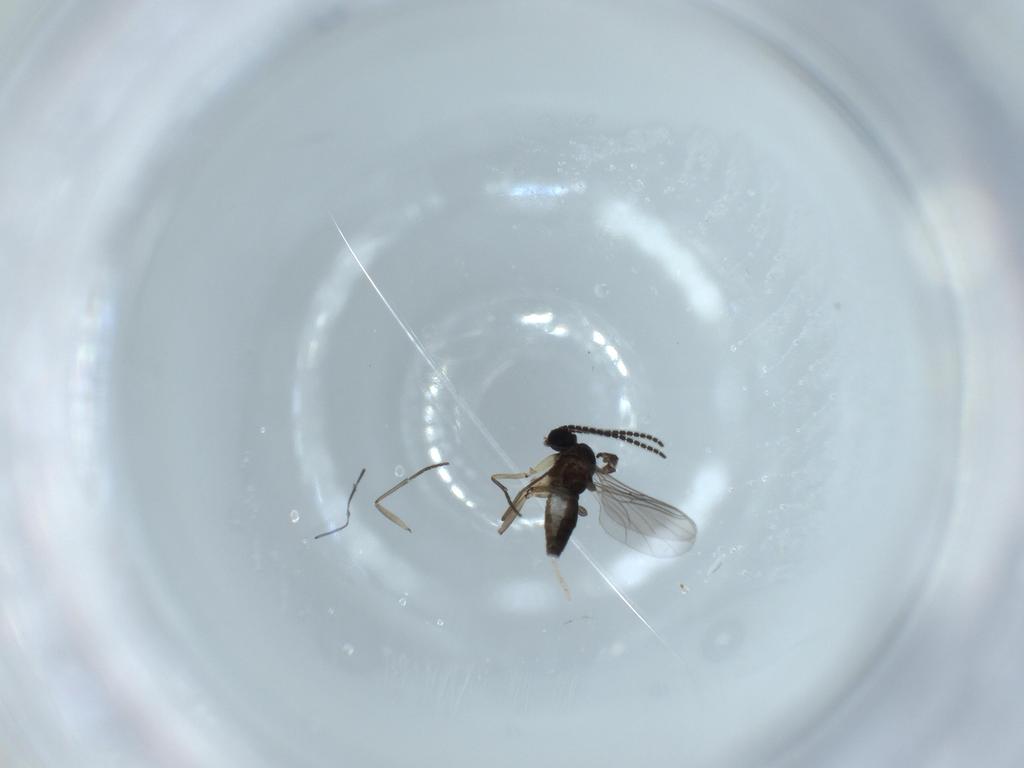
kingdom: Animalia
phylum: Arthropoda
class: Insecta
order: Diptera
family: Sciaridae
